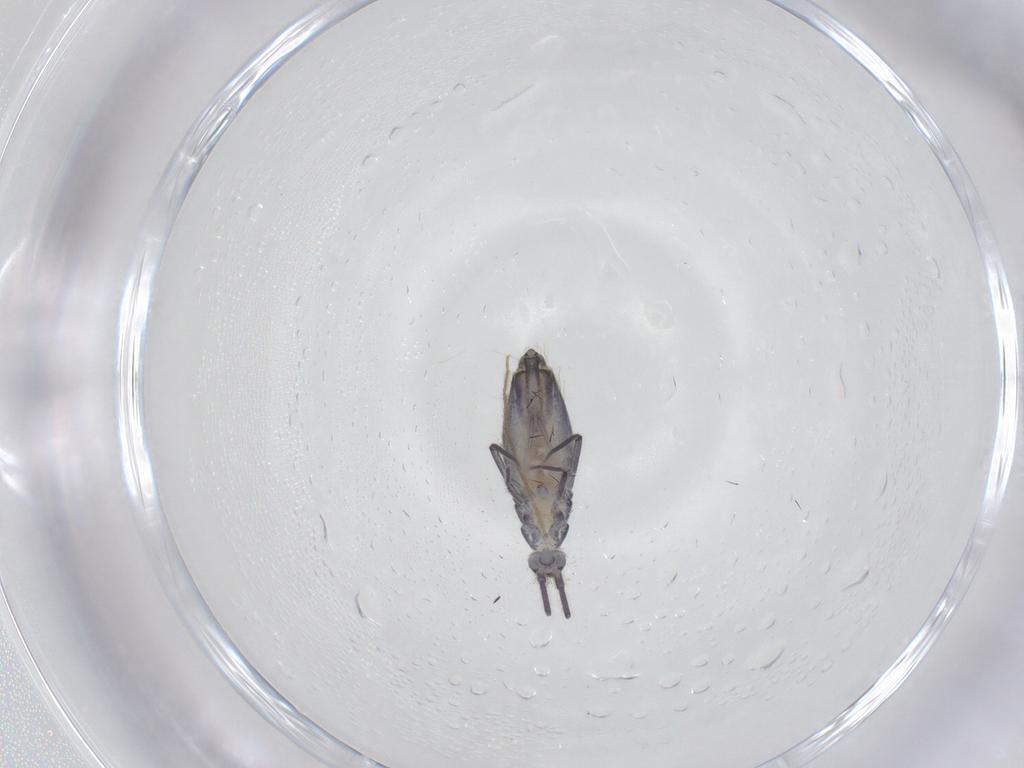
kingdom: Animalia
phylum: Arthropoda
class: Collembola
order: Entomobryomorpha
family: Entomobryidae
